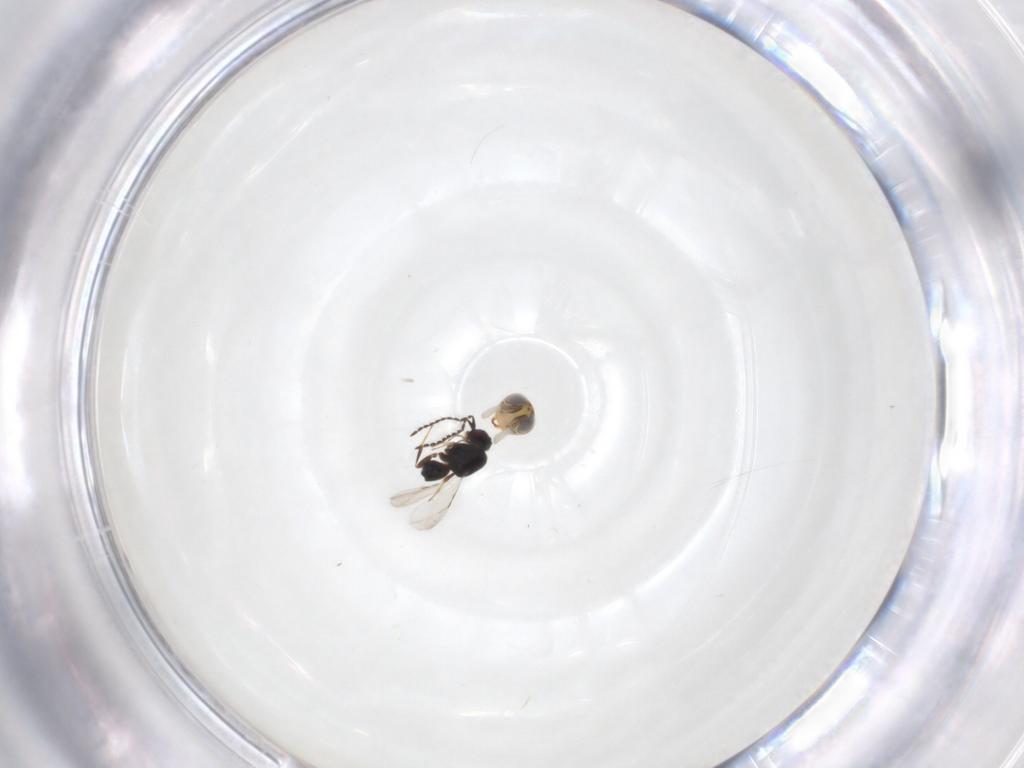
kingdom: Animalia
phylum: Arthropoda
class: Insecta
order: Hymenoptera
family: Encyrtidae
